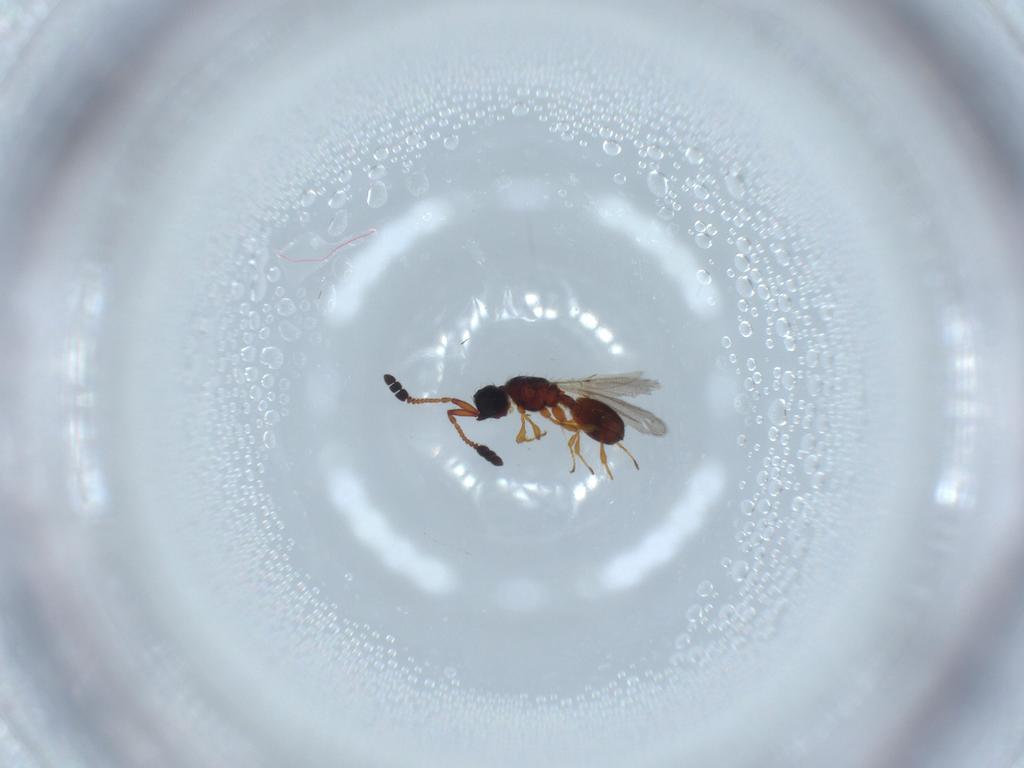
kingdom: Animalia
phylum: Arthropoda
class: Insecta
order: Hymenoptera
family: Diapriidae
